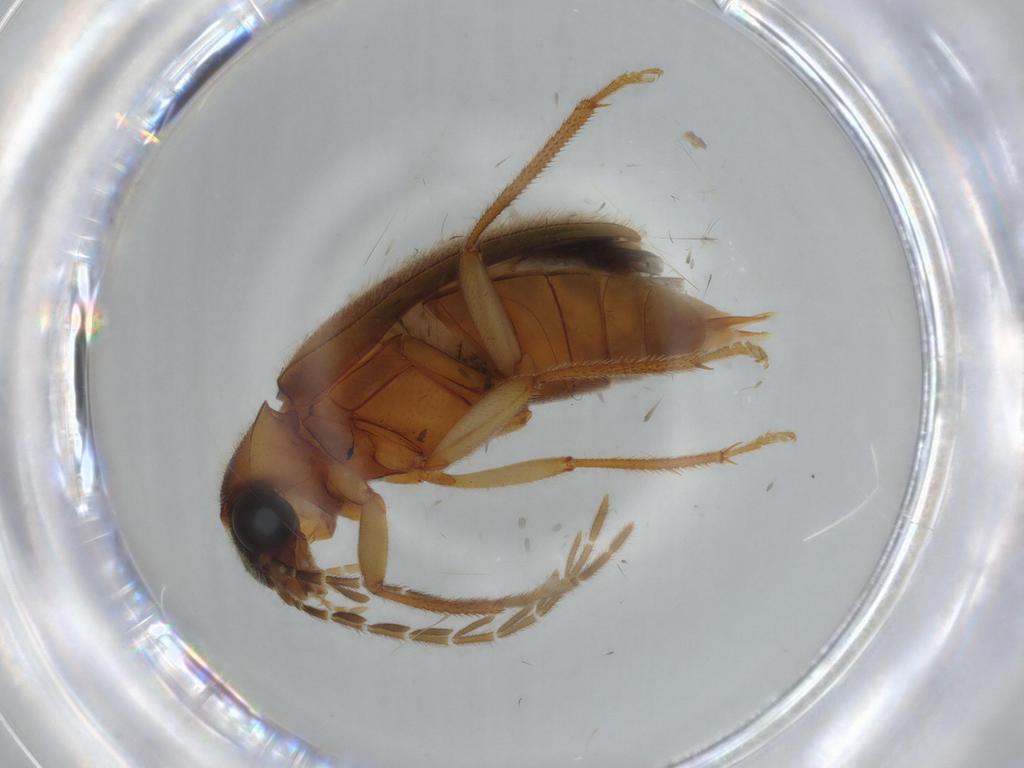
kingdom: Animalia
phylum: Arthropoda
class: Insecta
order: Coleoptera
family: Ptilodactylidae
